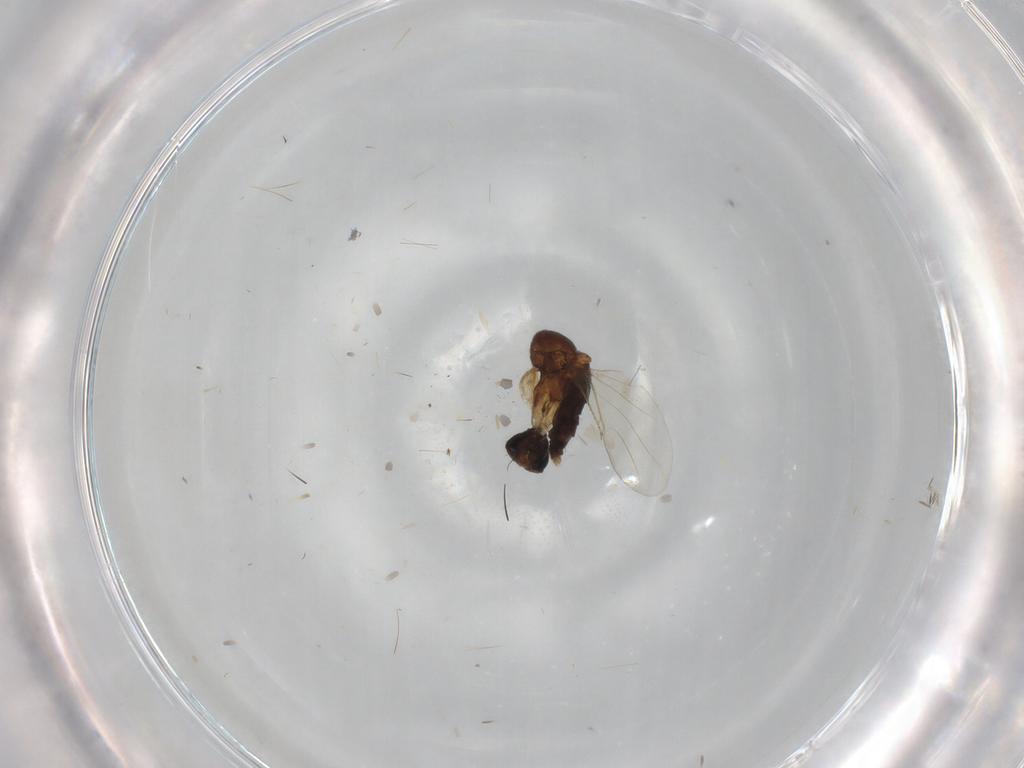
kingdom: Animalia
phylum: Arthropoda
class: Insecta
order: Diptera
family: Phoridae
